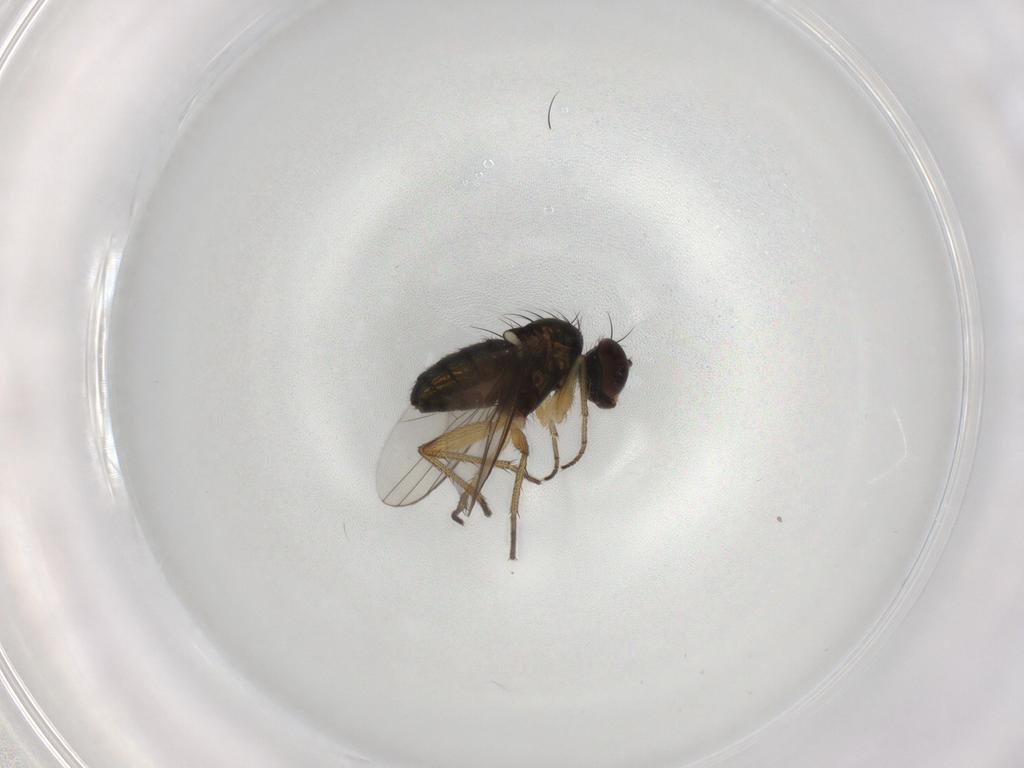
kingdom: Animalia
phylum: Arthropoda
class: Insecta
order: Diptera
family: Dolichopodidae
